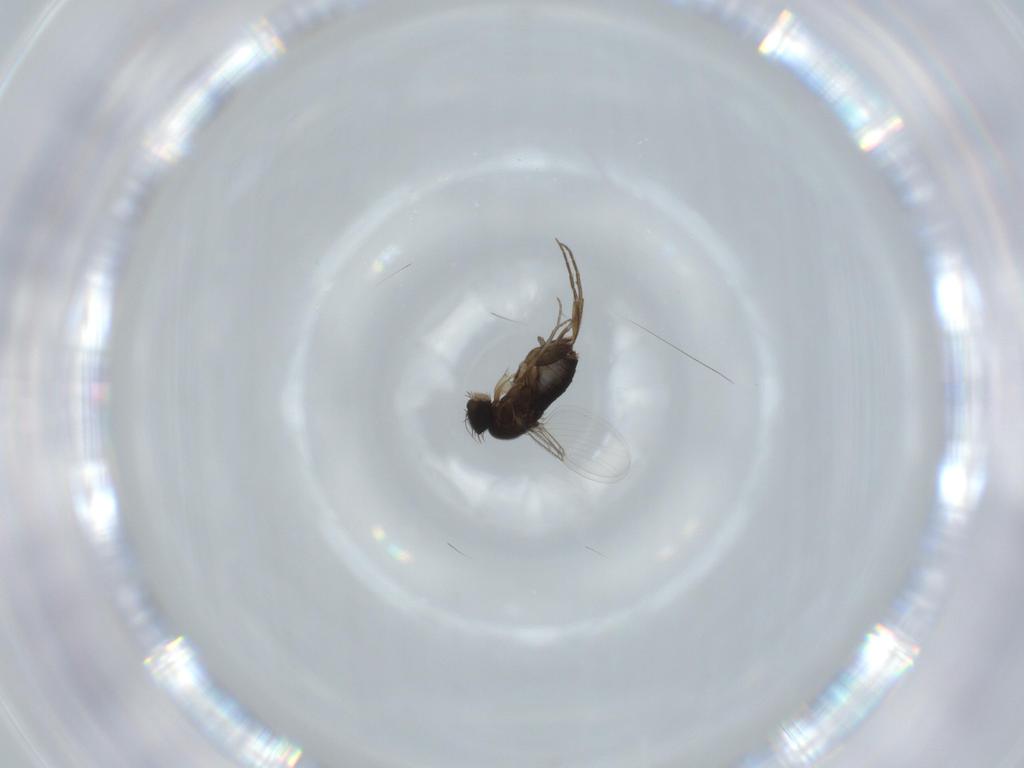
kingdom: Animalia
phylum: Arthropoda
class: Insecta
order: Diptera
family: Phoridae
